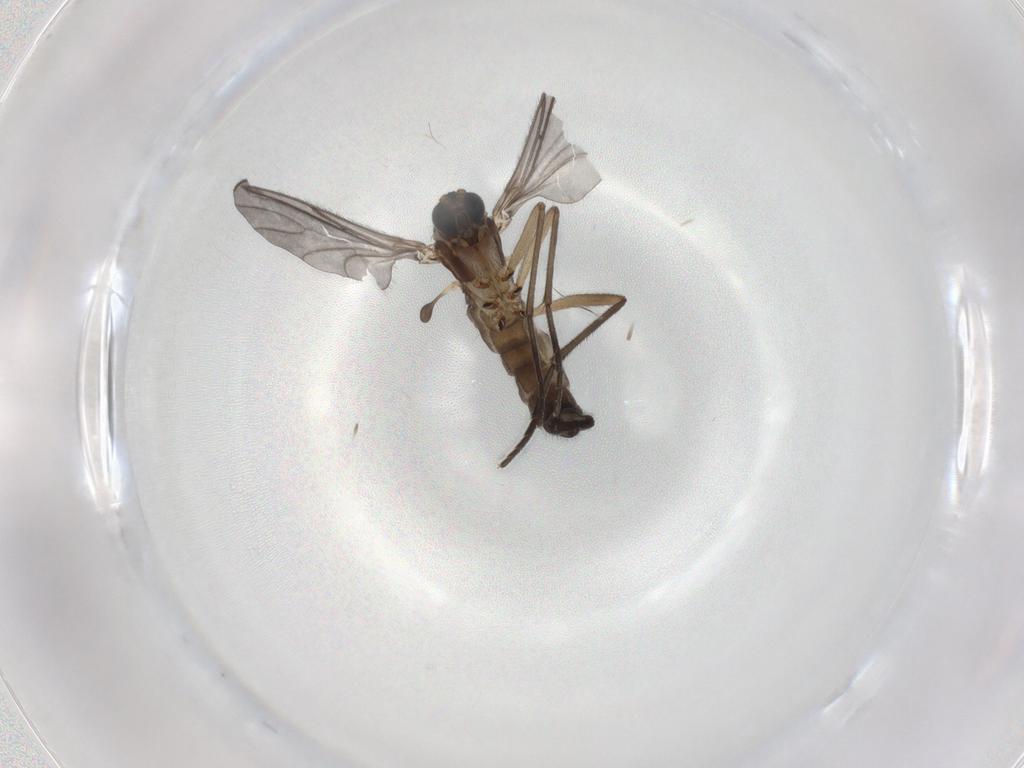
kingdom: Animalia
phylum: Arthropoda
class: Insecta
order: Diptera
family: Sciaridae
